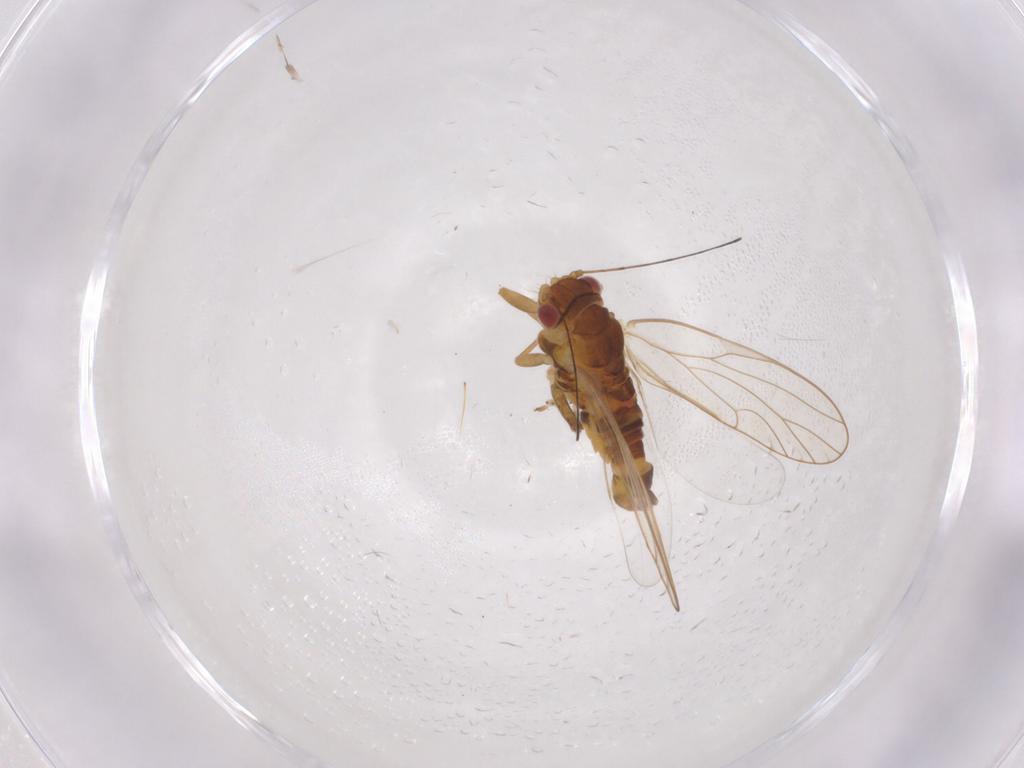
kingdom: Animalia
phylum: Arthropoda
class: Insecta
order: Hemiptera
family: Psyllidae
